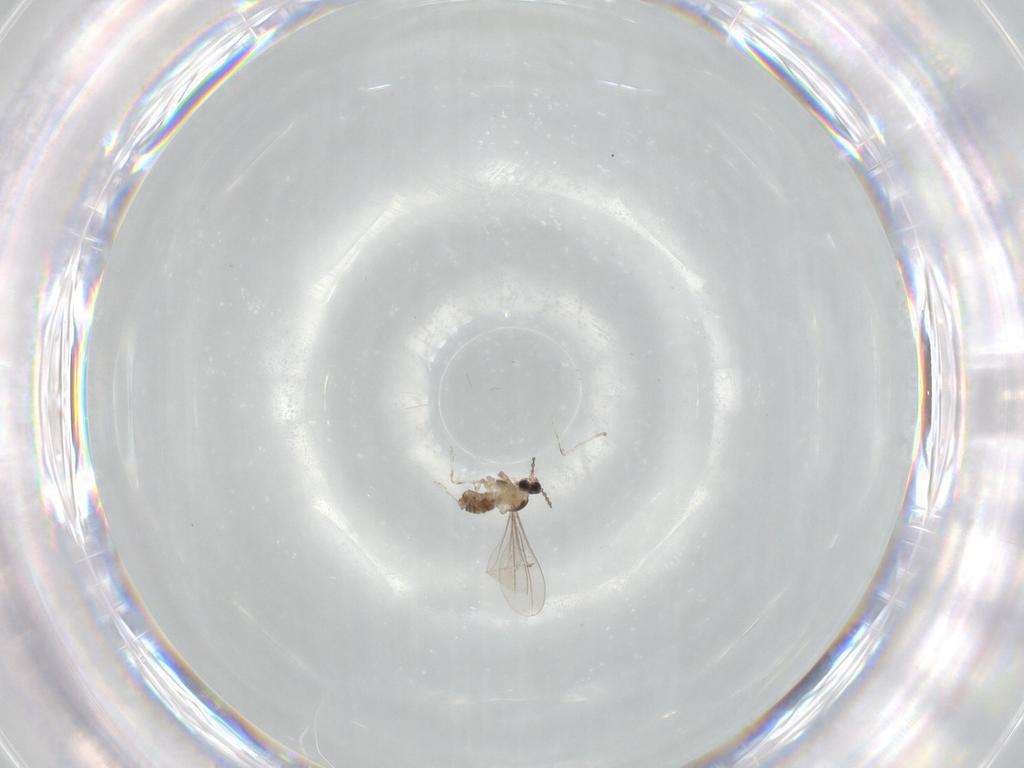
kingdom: Animalia
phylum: Arthropoda
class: Insecta
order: Diptera
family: Cecidomyiidae
